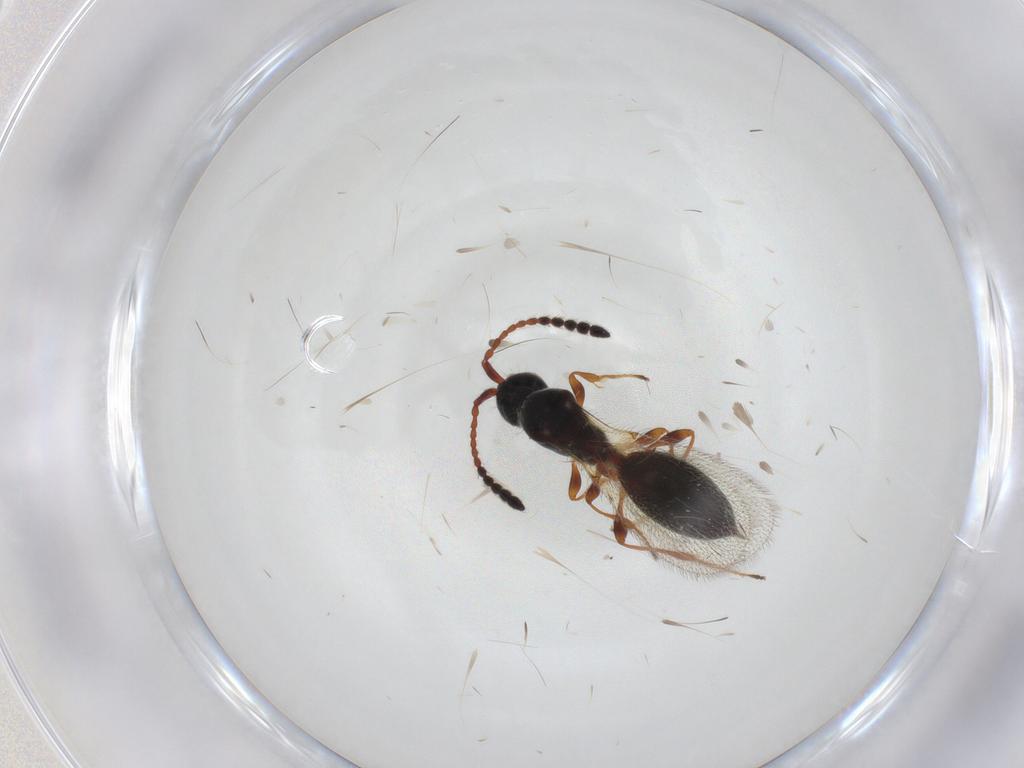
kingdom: Animalia
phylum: Arthropoda
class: Insecta
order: Hymenoptera
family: Diapriidae
